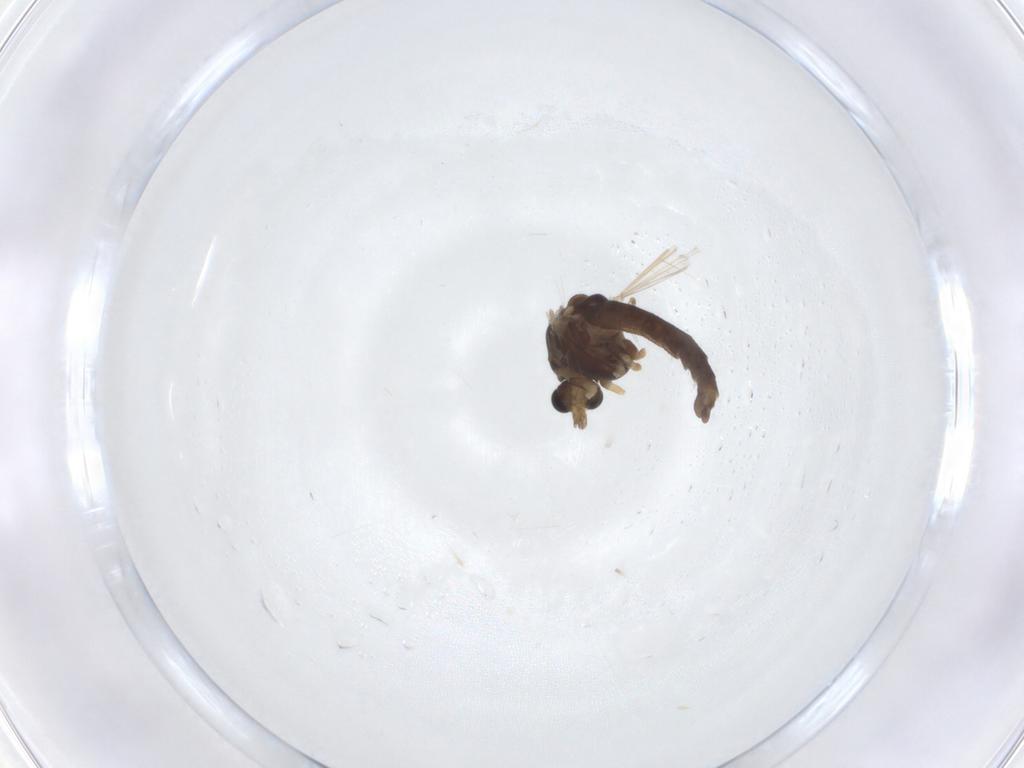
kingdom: Animalia
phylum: Arthropoda
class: Insecta
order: Diptera
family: Chironomidae
